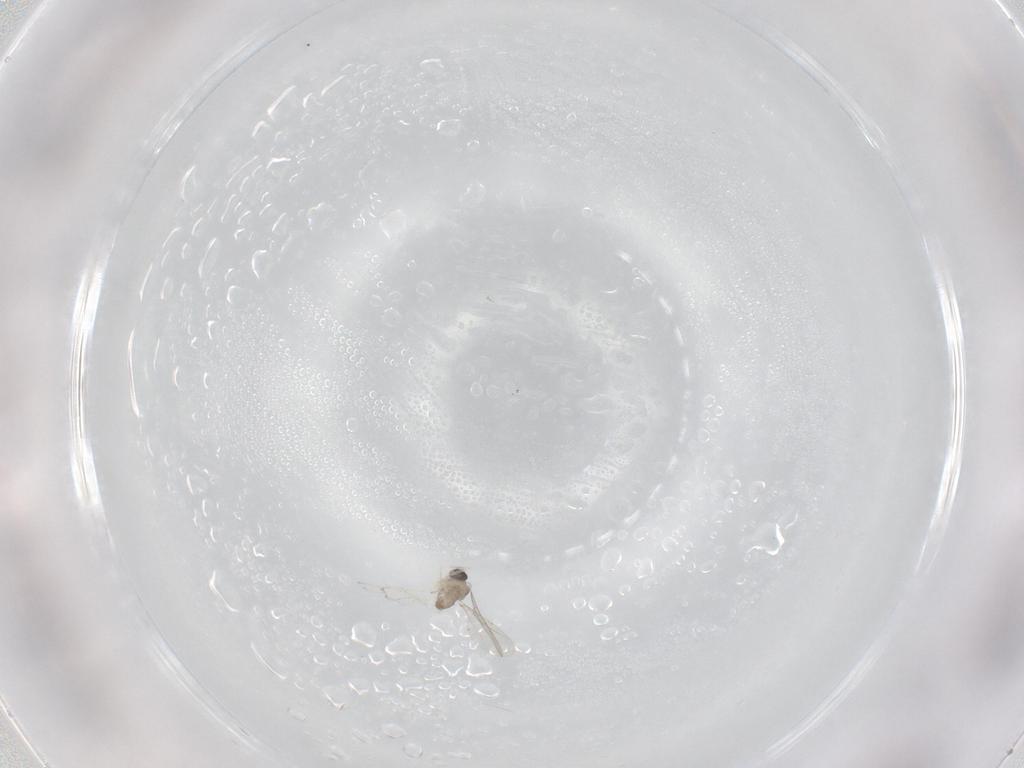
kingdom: Animalia
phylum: Arthropoda
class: Insecta
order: Diptera
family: Cecidomyiidae
